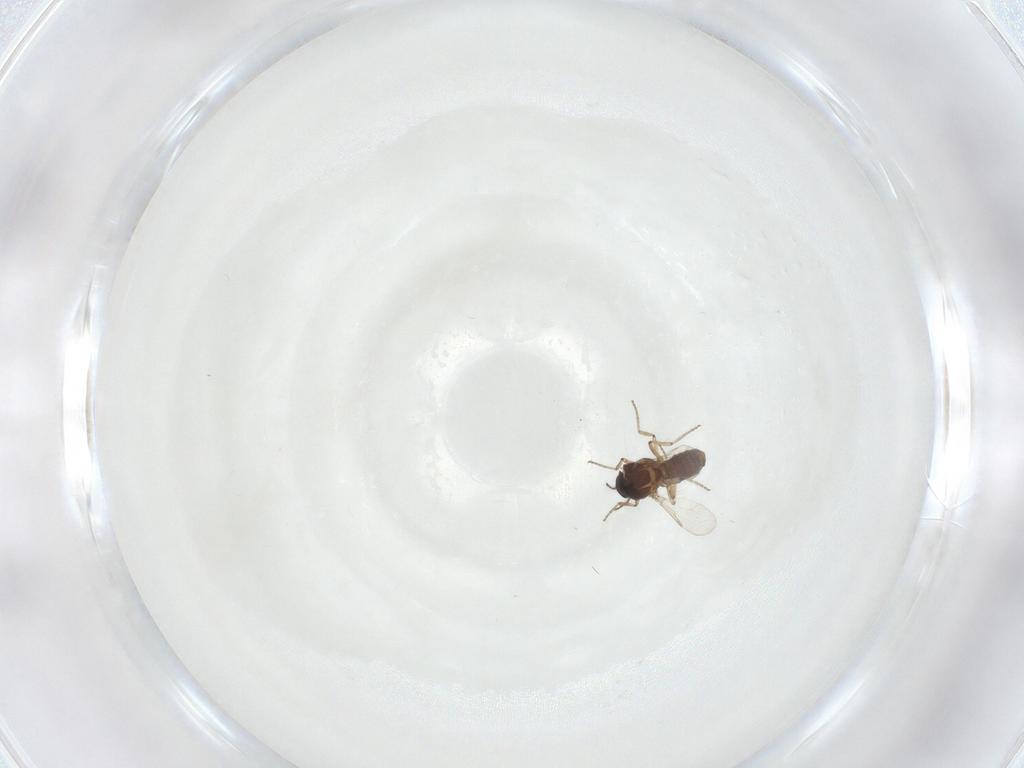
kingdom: Animalia
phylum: Arthropoda
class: Insecta
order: Diptera
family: Ceratopogonidae
